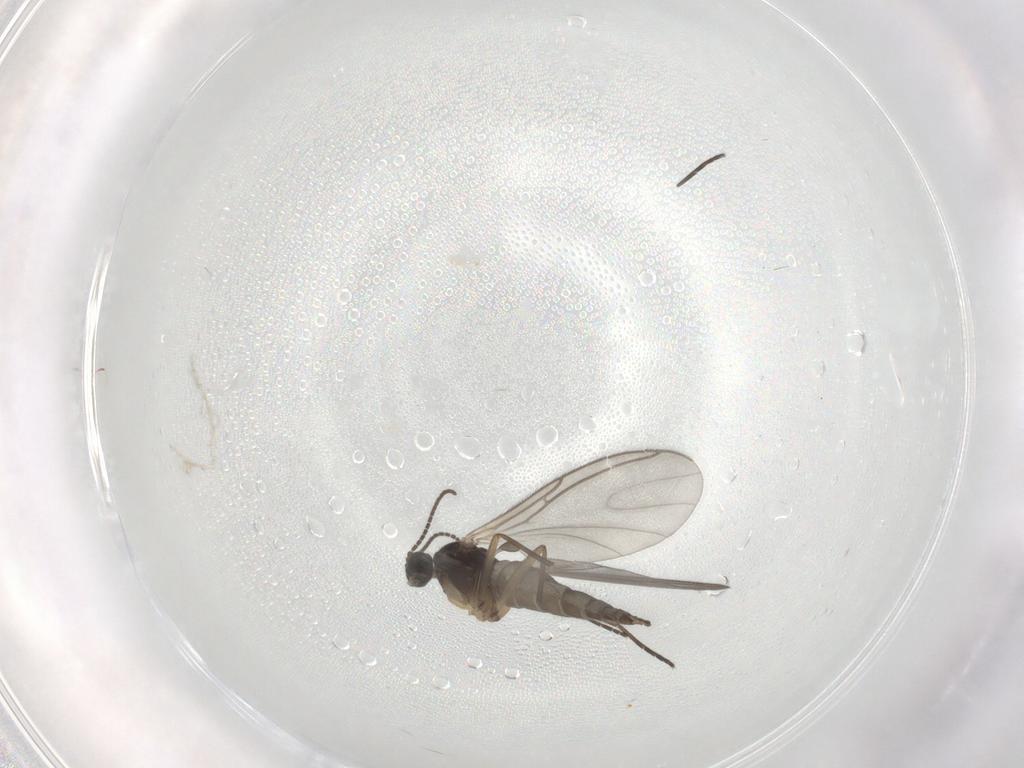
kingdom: Animalia
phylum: Arthropoda
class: Insecta
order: Diptera
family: Sciaridae
